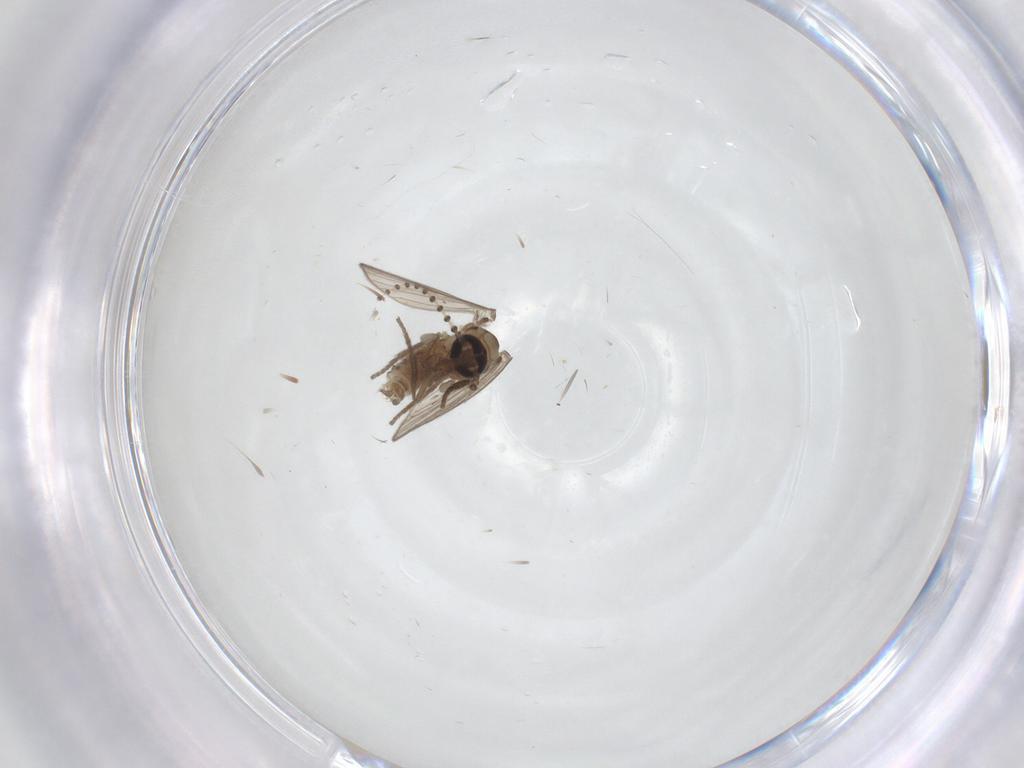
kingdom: Animalia
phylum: Arthropoda
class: Insecta
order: Diptera
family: Psychodidae
